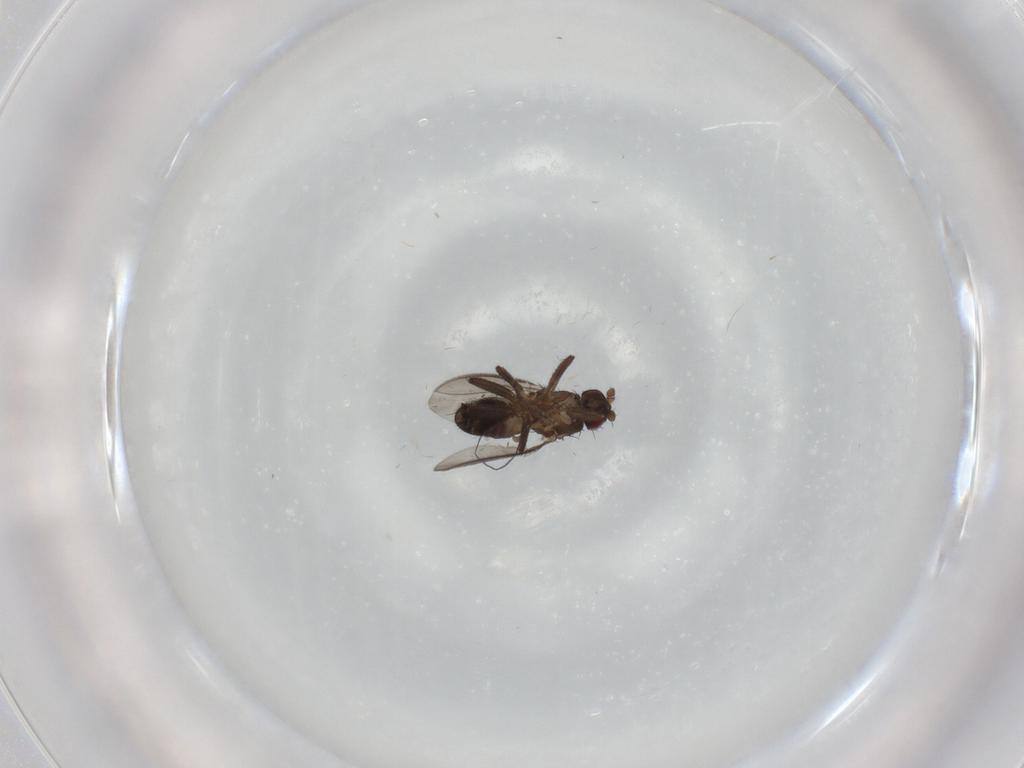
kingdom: Animalia
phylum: Arthropoda
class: Insecta
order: Diptera
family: Sphaeroceridae
